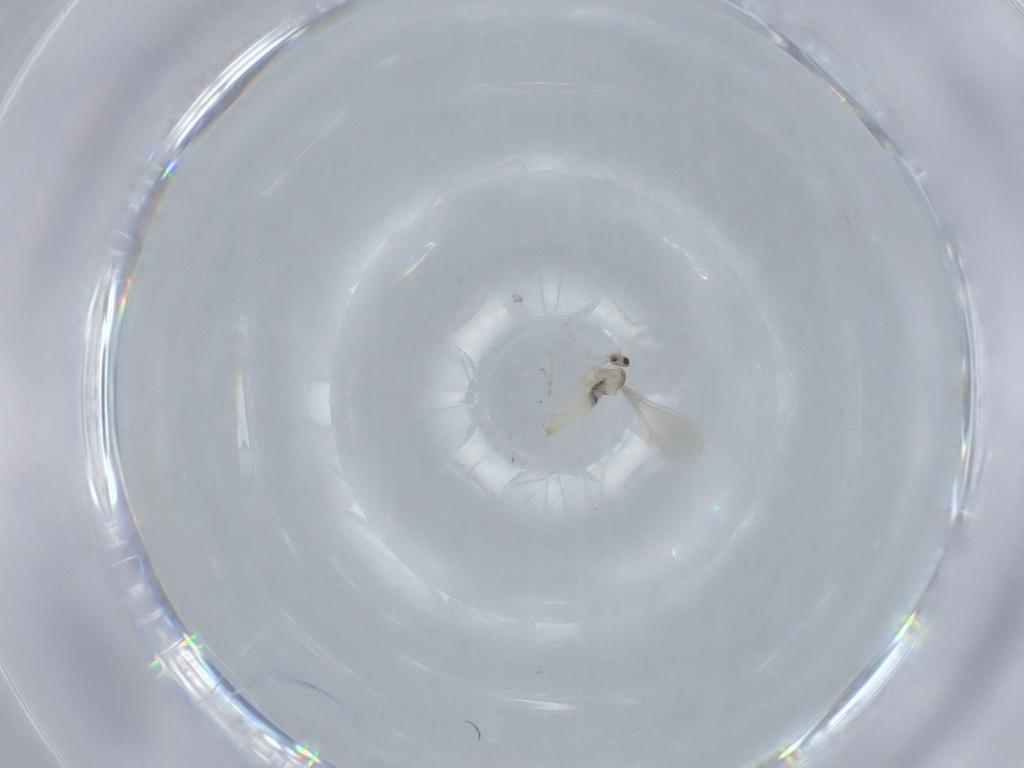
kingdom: Animalia
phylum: Arthropoda
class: Insecta
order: Diptera
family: Cecidomyiidae
